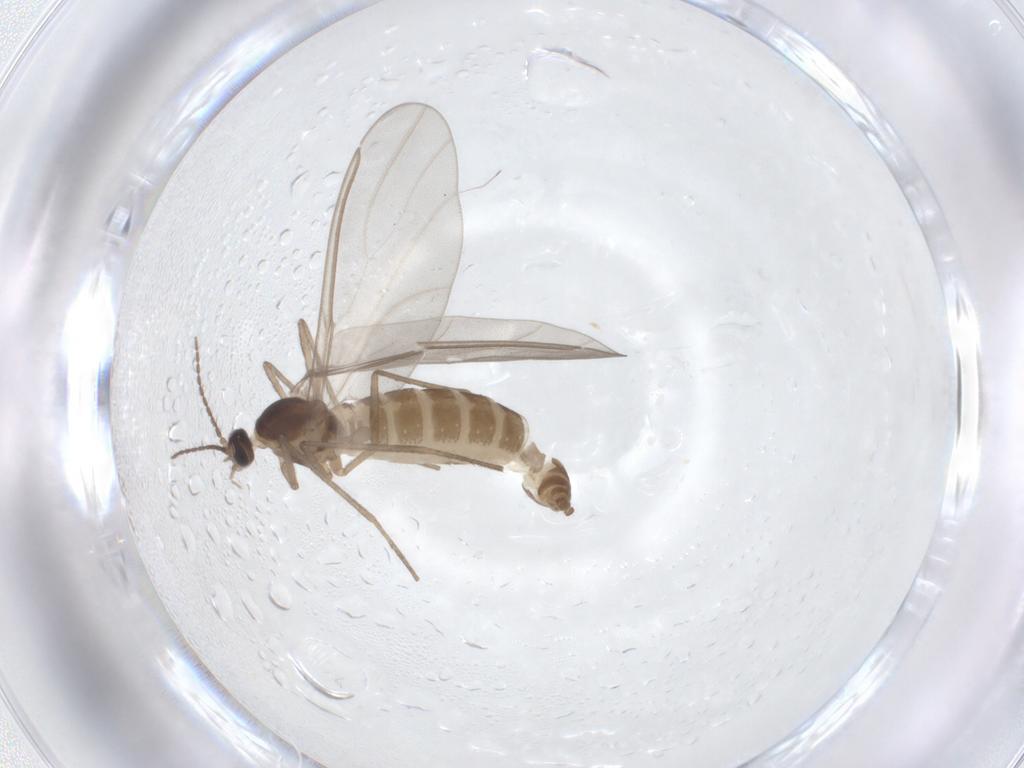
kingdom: Animalia
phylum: Arthropoda
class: Insecta
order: Diptera
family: Cecidomyiidae
